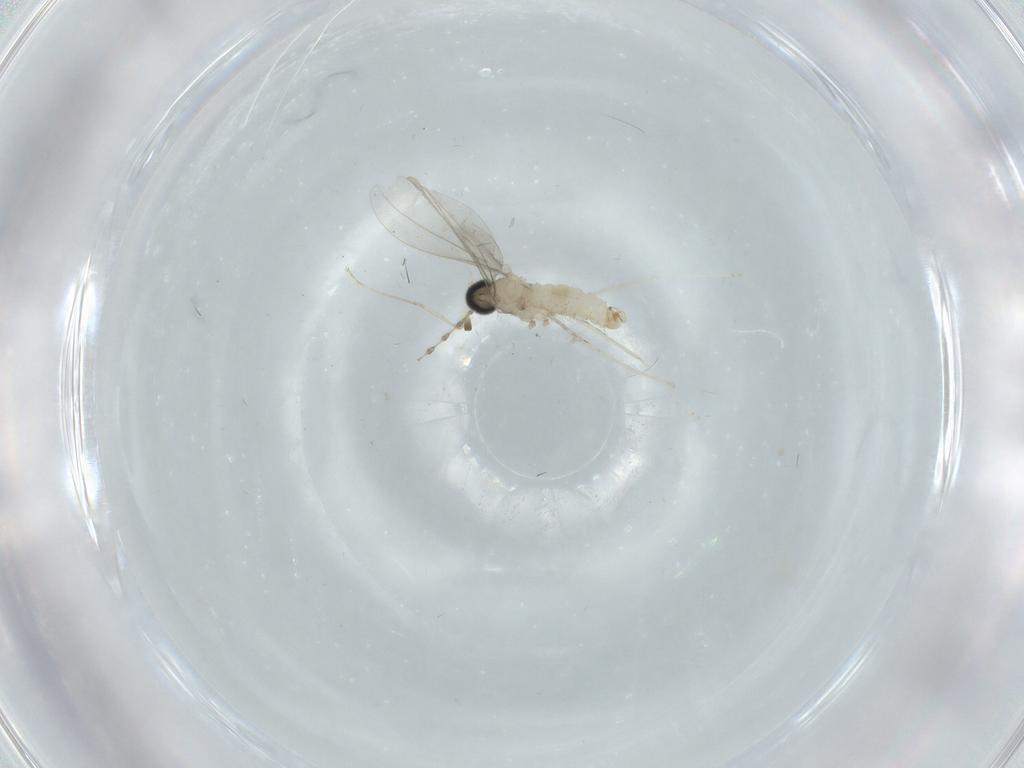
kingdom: Animalia
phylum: Arthropoda
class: Insecta
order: Diptera
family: Cecidomyiidae
